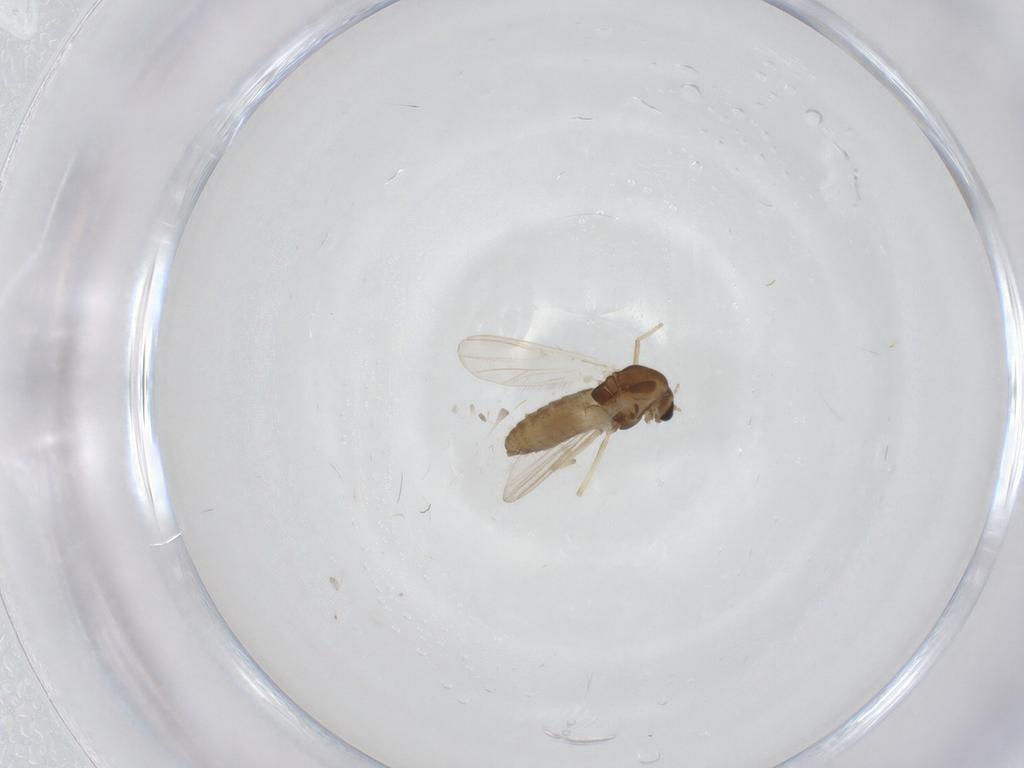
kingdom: Animalia
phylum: Arthropoda
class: Insecta
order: Diptera
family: Chironomidae
